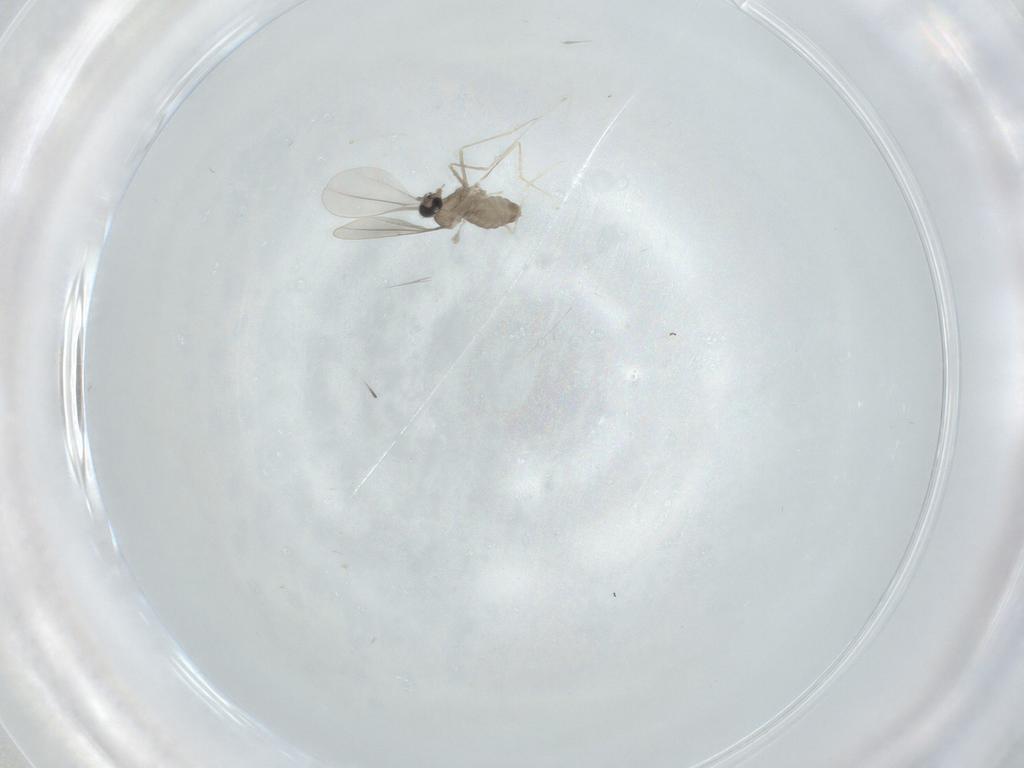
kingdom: Animalia
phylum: Arthropoda
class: Insecta
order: Diptera
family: Cecidomyiidae
